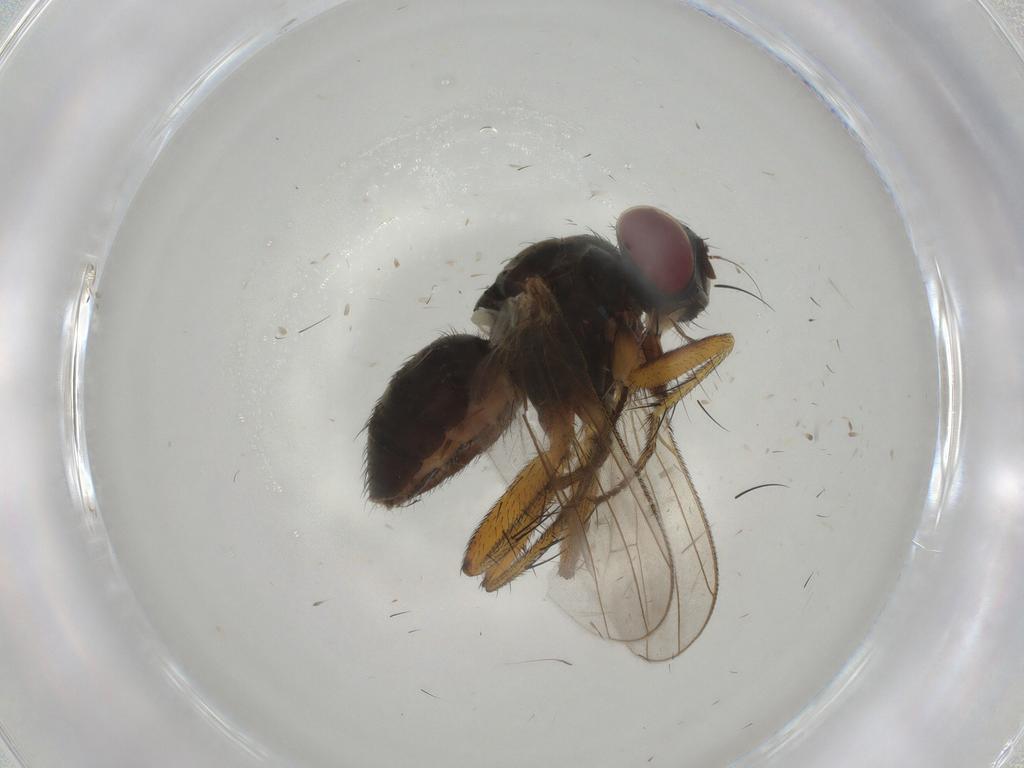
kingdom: Animalia
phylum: Arthropoda
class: Insecta
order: Diptera
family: Muscidae
